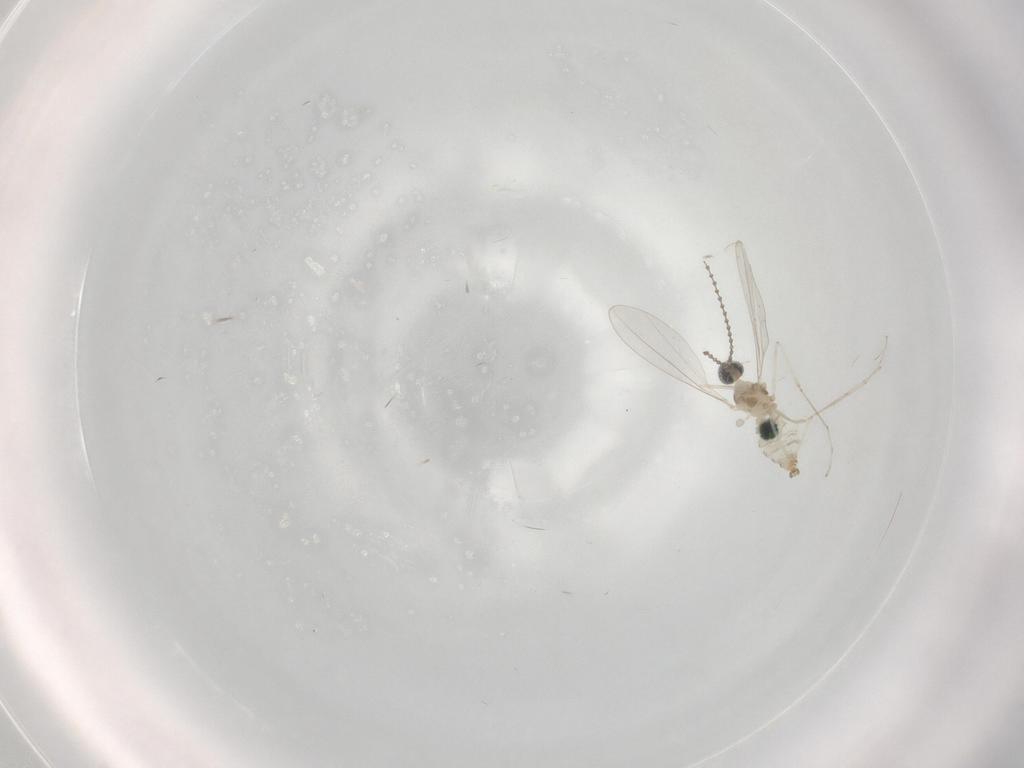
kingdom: Animalia
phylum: Arthropoda
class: Insecta
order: Diptera
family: Cecidomyiidae
